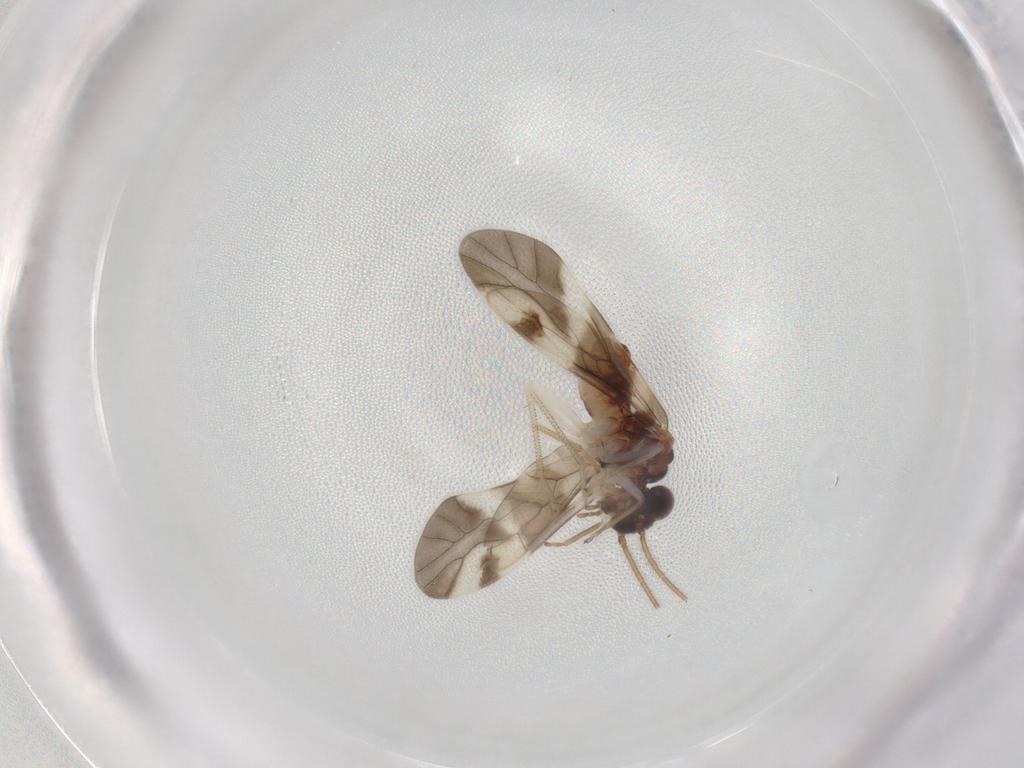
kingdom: Animalia
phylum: Arthropoda
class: Insecta
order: Psocodea
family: Archipsocidae
